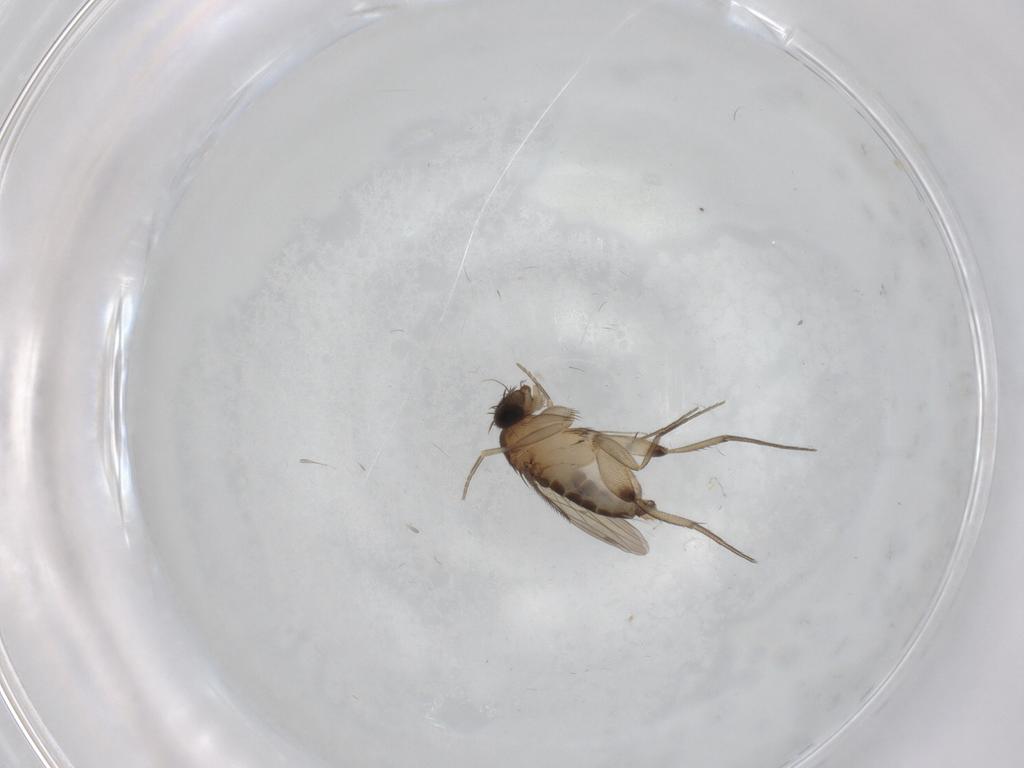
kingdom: Animalia
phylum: Arthropoda
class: Insecta
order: Diptera
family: Phoridae
